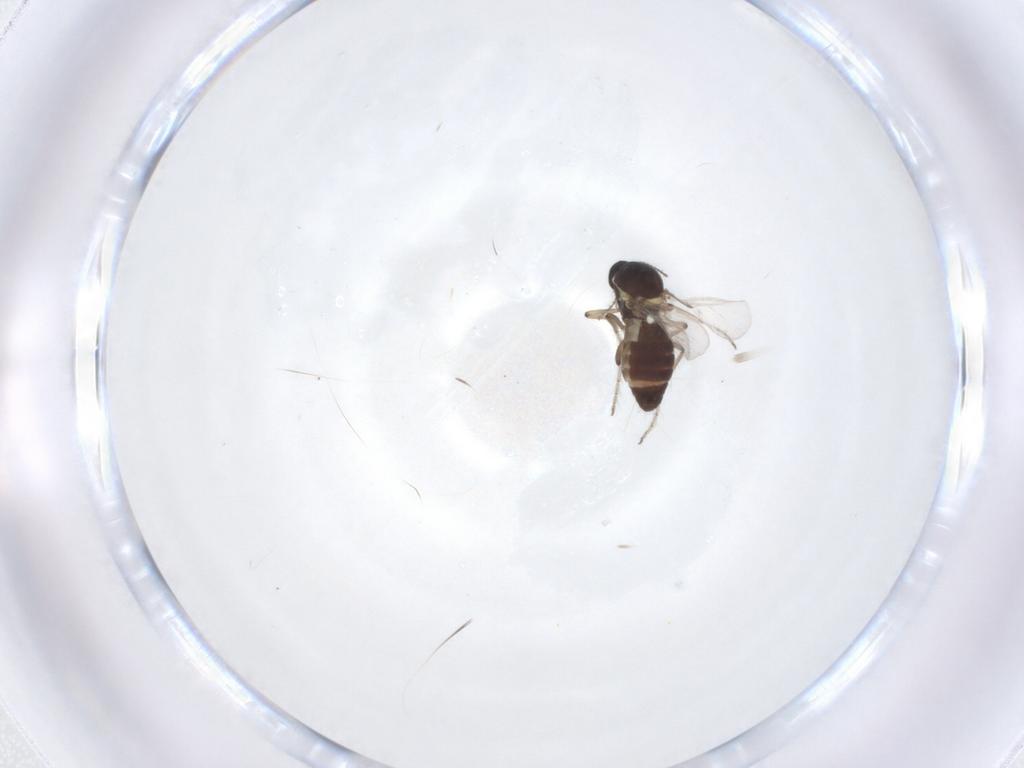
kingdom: Animalia
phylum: Arthropoda
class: Insecta
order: Diptera
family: Ceratopogonidae
